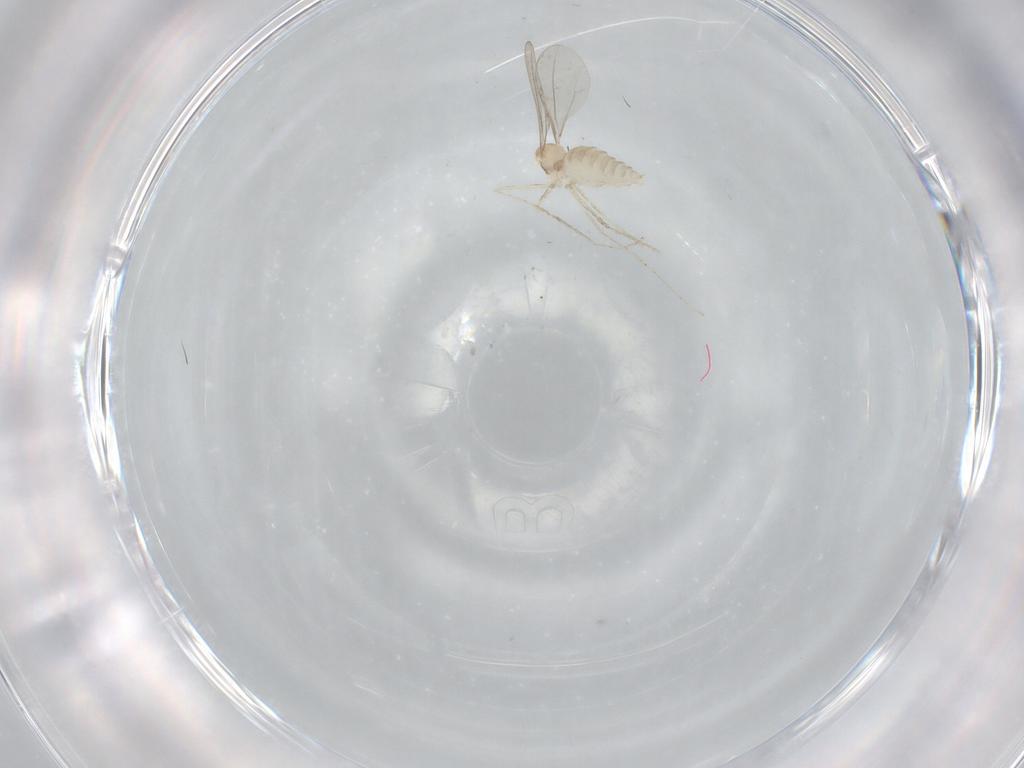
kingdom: Animalia
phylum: Arthropoda
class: Insecta
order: Diptera
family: Cecidomyiidae
